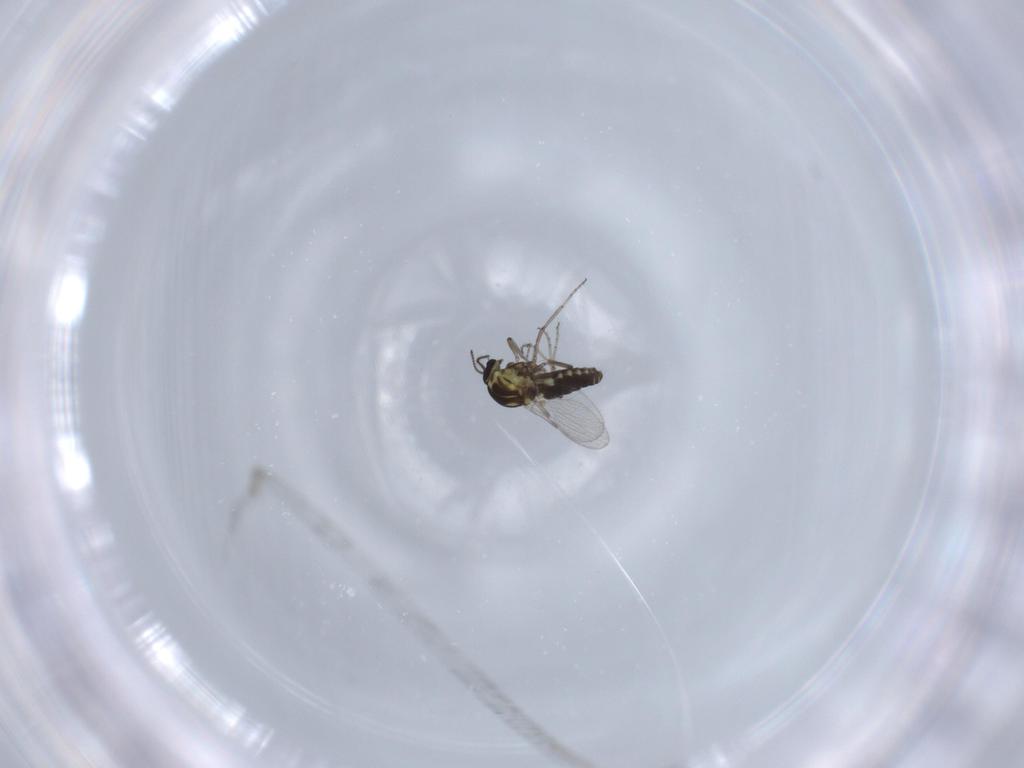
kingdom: Animalia
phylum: Arthropoda
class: Insecta
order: Diptera
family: Ceratopogonidae
